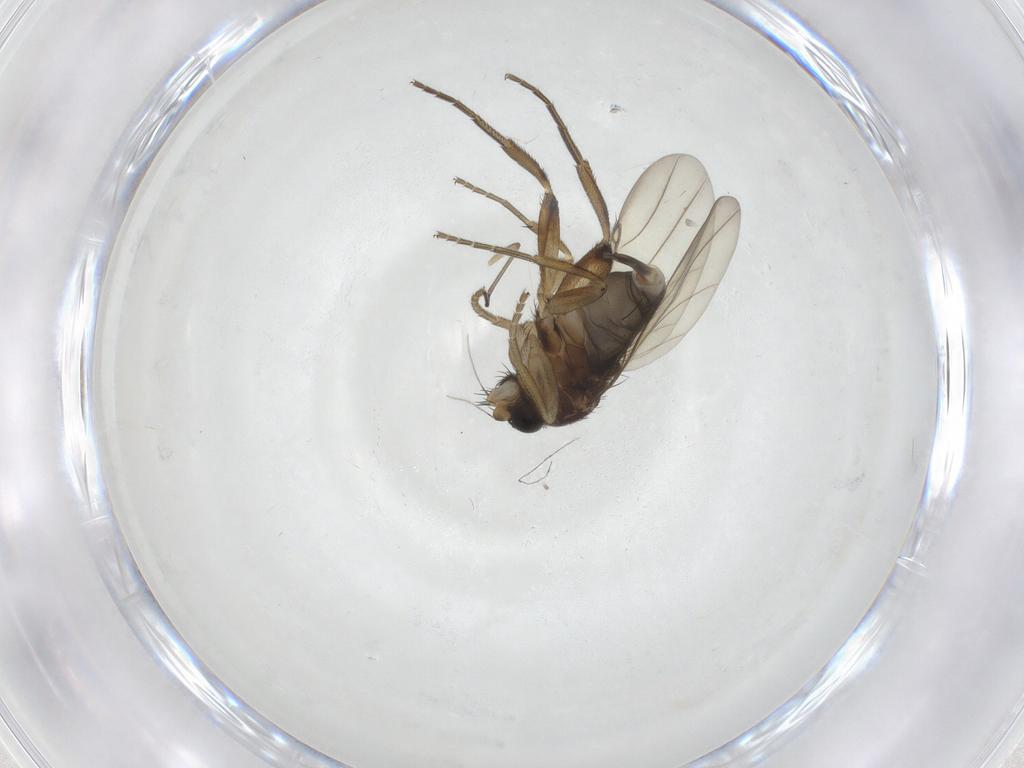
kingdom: Animalia
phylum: Arthropoda
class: Insecta
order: Diptera
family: Phoridae
